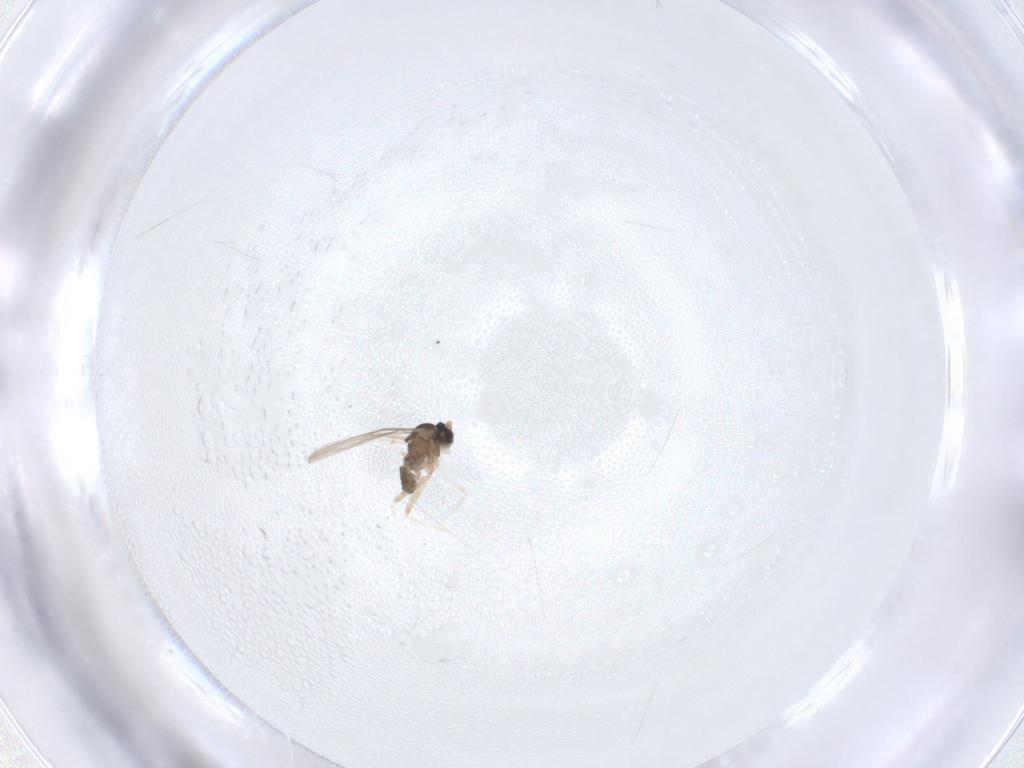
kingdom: Animalia
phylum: Arthropoda
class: Insecta
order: Diptera
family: Cecidomyiidae
